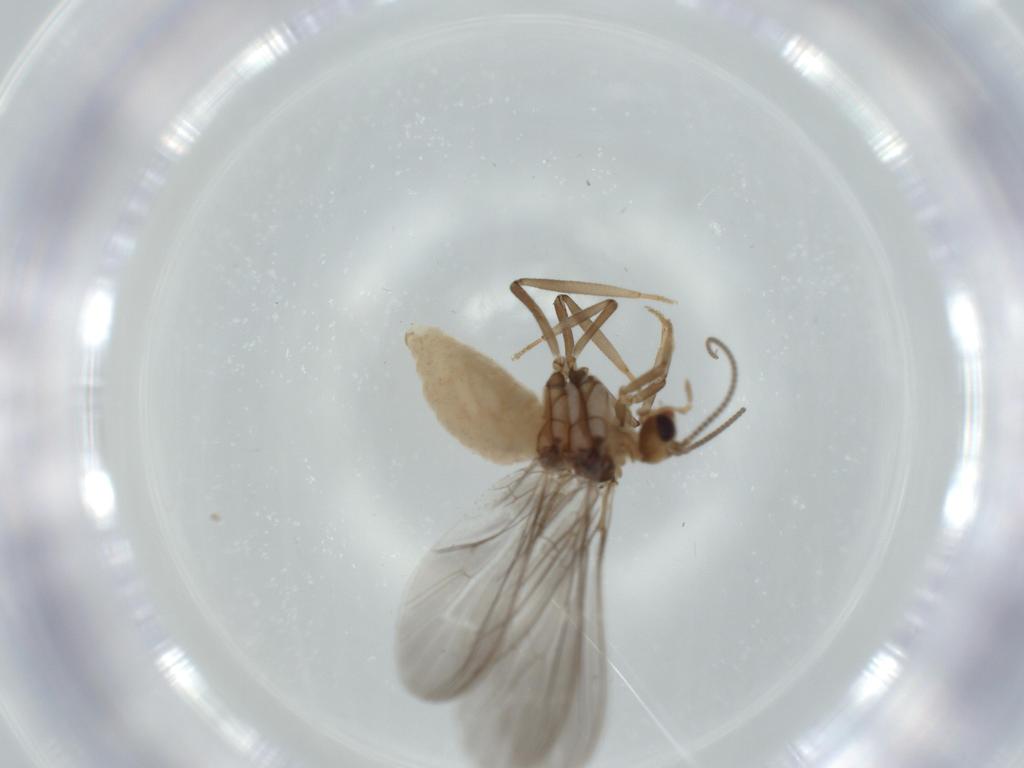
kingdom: Animalia
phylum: Arthropoda
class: Insecta
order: Neuroptera
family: Coniopterygidae
